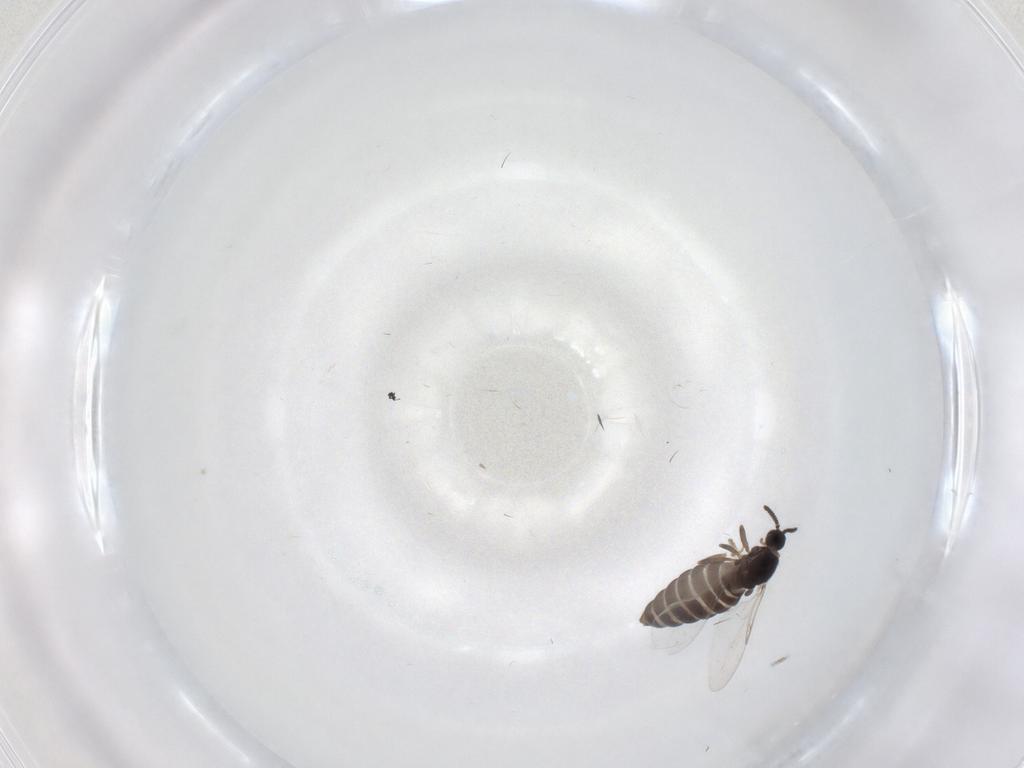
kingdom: Animalia
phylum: Arthropoda
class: Insecta
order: Diptera
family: Scatopsidae
